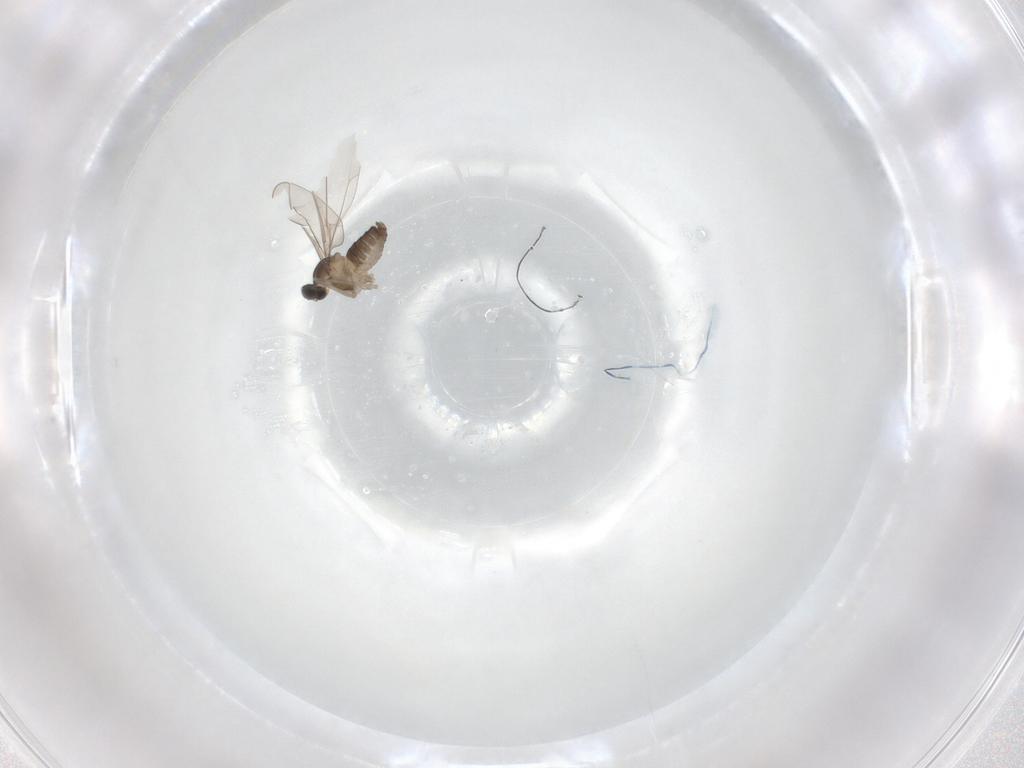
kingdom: Animalia
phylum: Arthropoda
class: Insecta
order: Diptera
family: Cecidomyiidae
